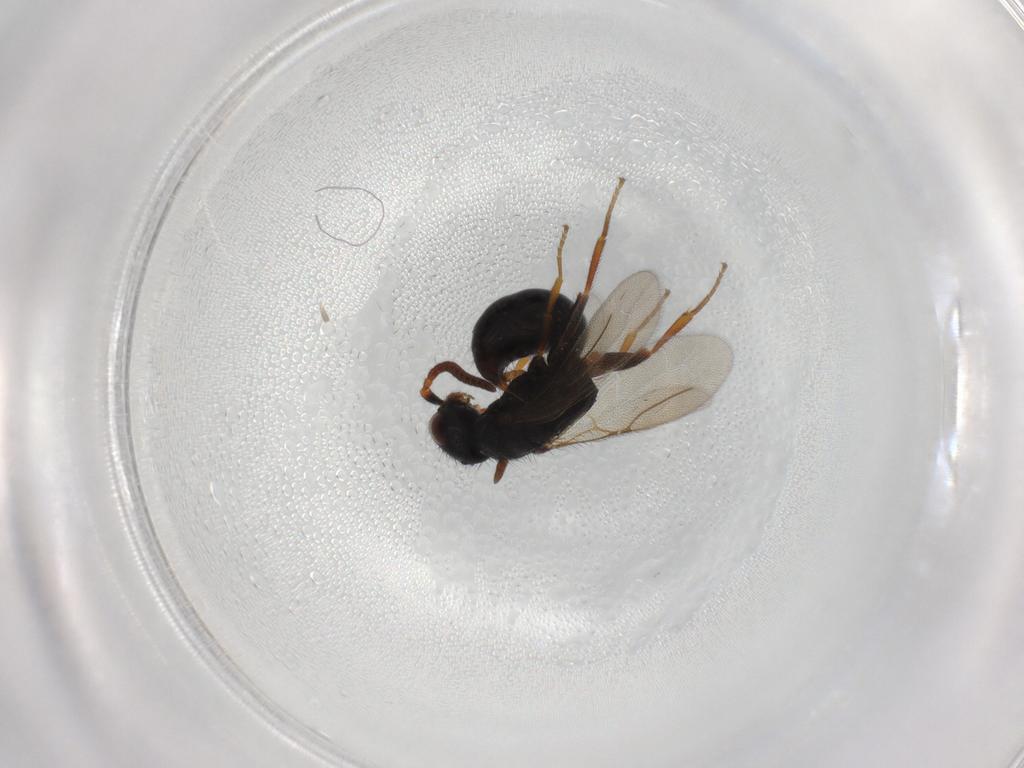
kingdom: Animalia
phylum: Arthropoda
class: Insecta
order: Hymenoptera
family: Bethylidae
